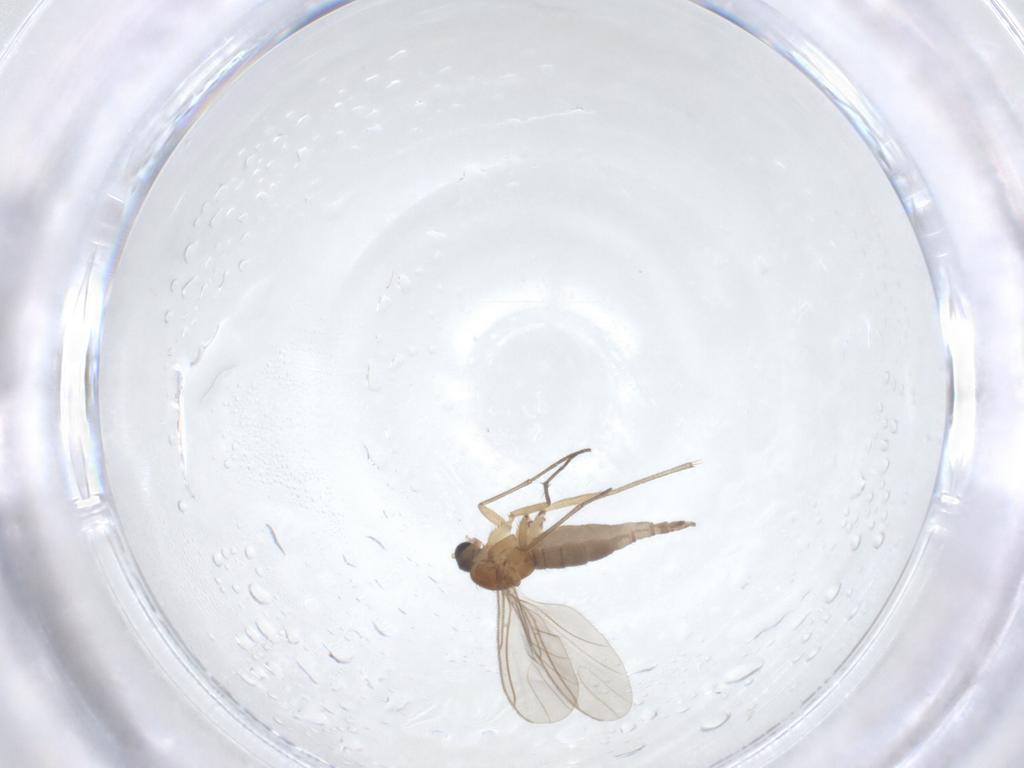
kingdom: Animalia
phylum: Arthropoda
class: Insecta
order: Diptera
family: Sciaridae
